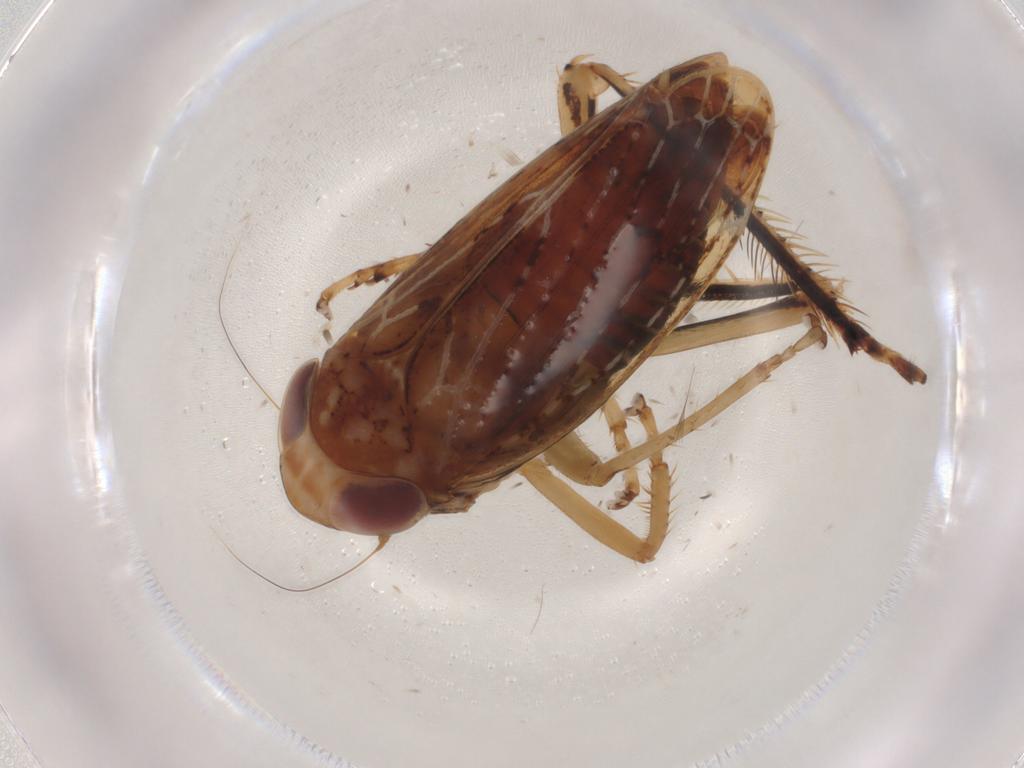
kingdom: Animalia
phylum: Arthropoda
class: Insecta
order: Hemiptera
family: Cicadellidae
